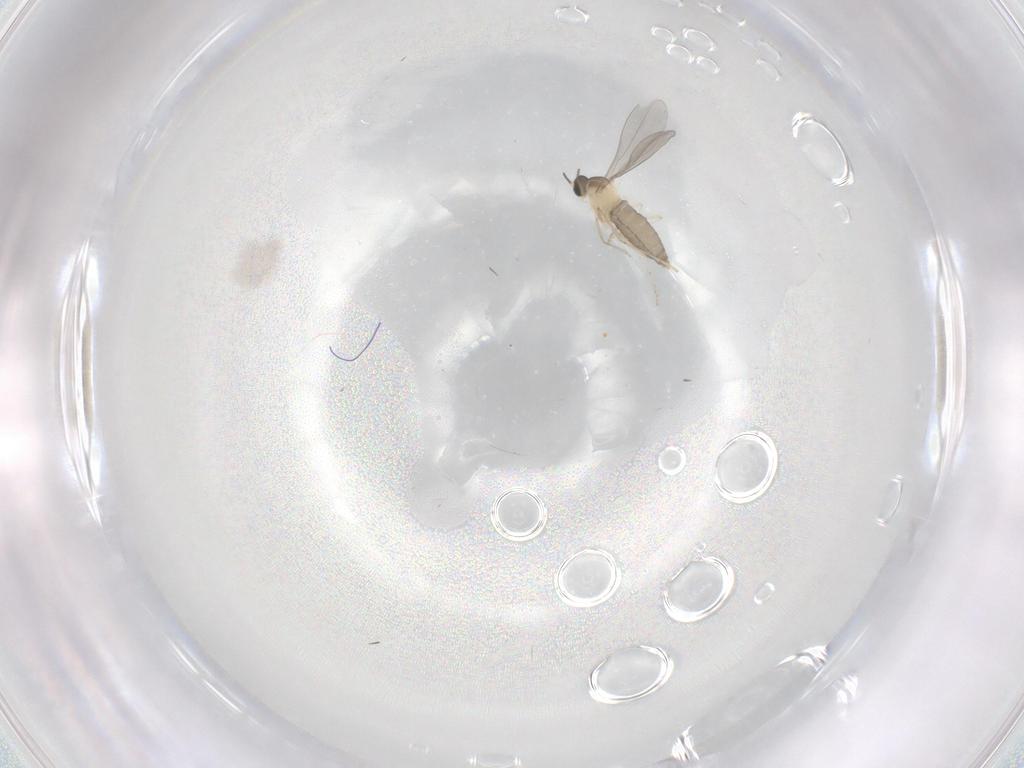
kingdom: Animalia
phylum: Arthropoda
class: Insecta
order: Diptera
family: Cecidomyiidae
